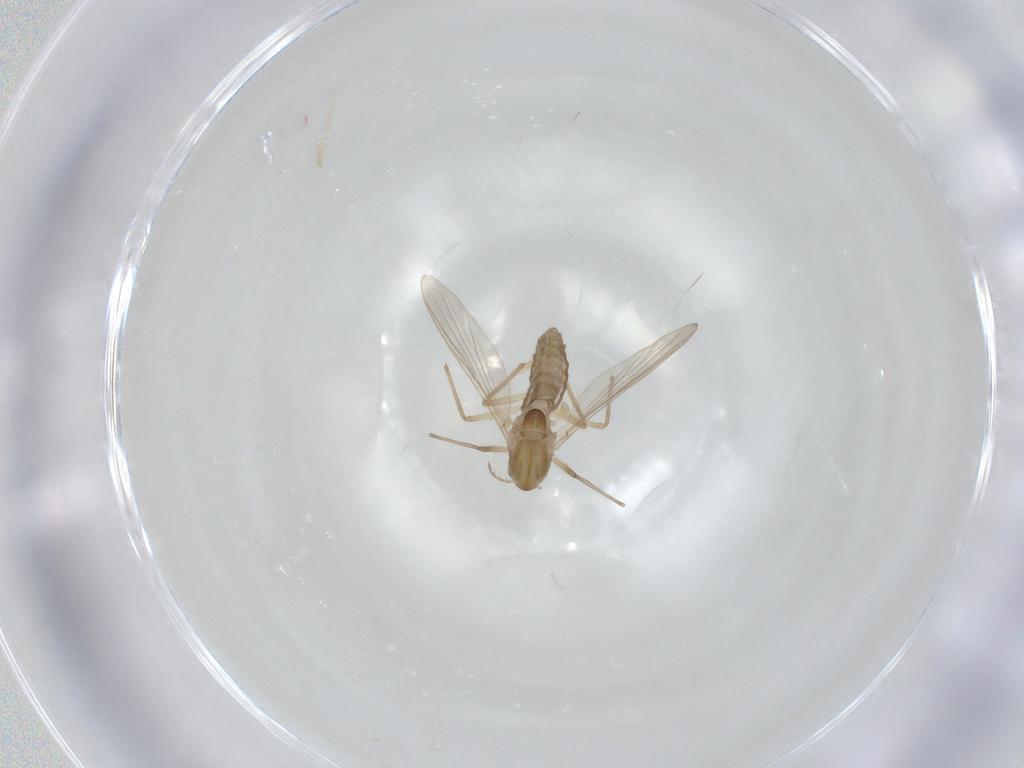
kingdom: Animalia
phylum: Arthropoda
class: Insecta
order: Diptera
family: Chironomidae
